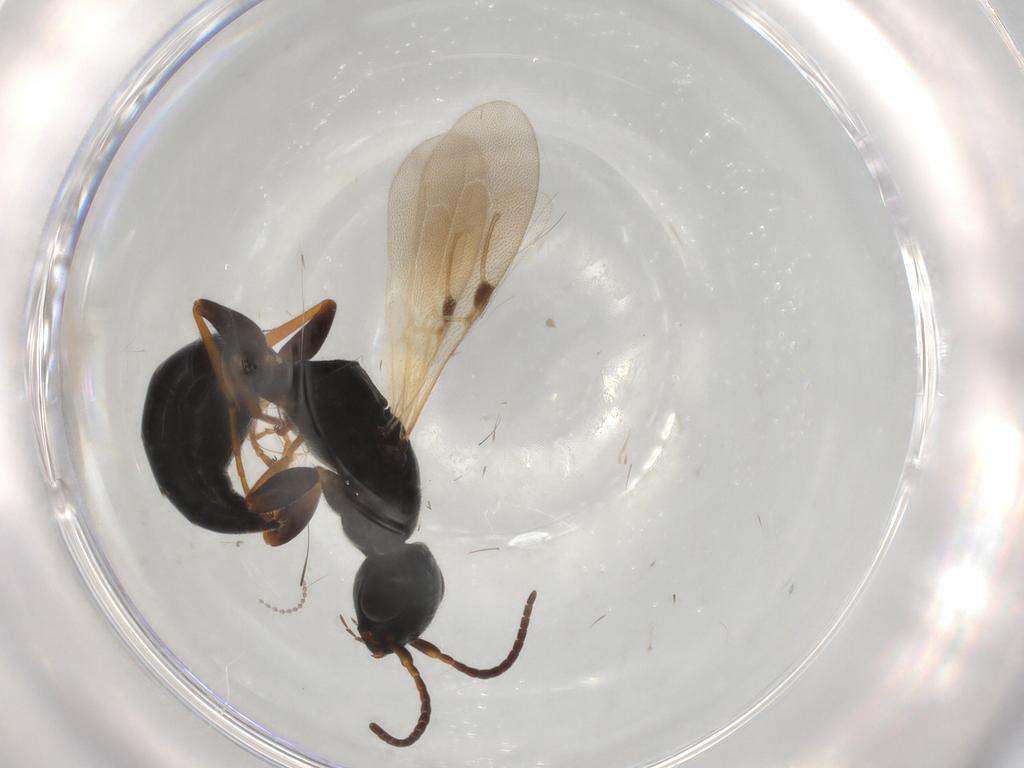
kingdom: Animalia
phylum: Arthropoda
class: Insecta
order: Hymenoptera
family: Bethylidae
